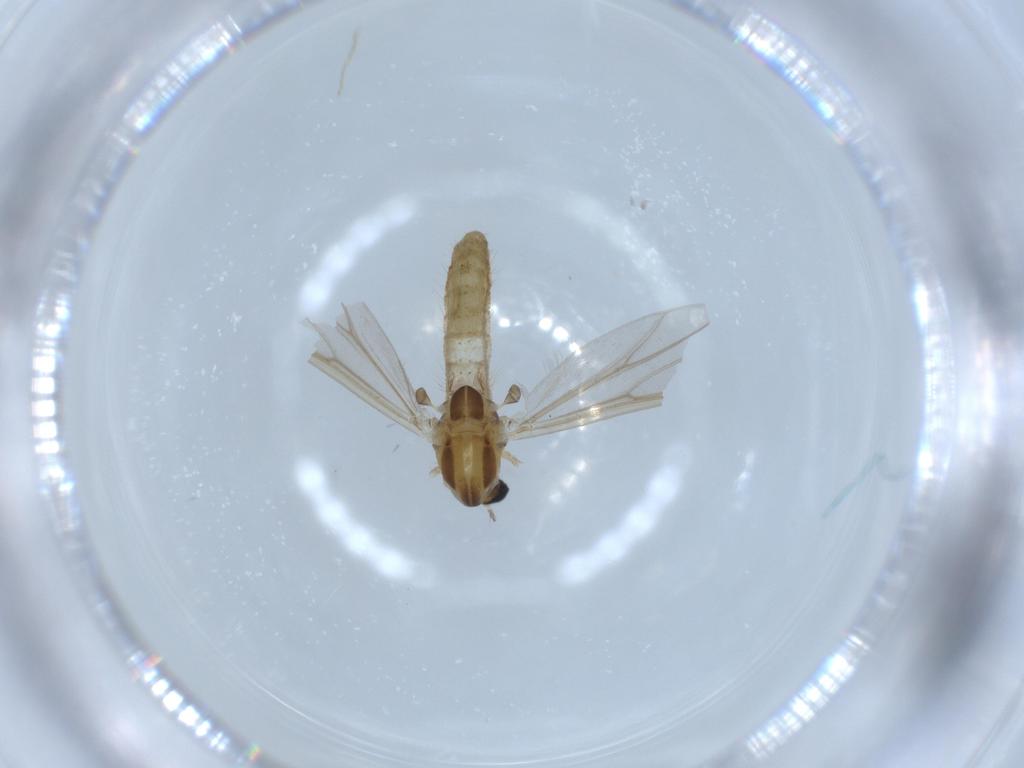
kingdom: Animalia
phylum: Arthropoda
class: Insecta
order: Diptera
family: Chironomidae
